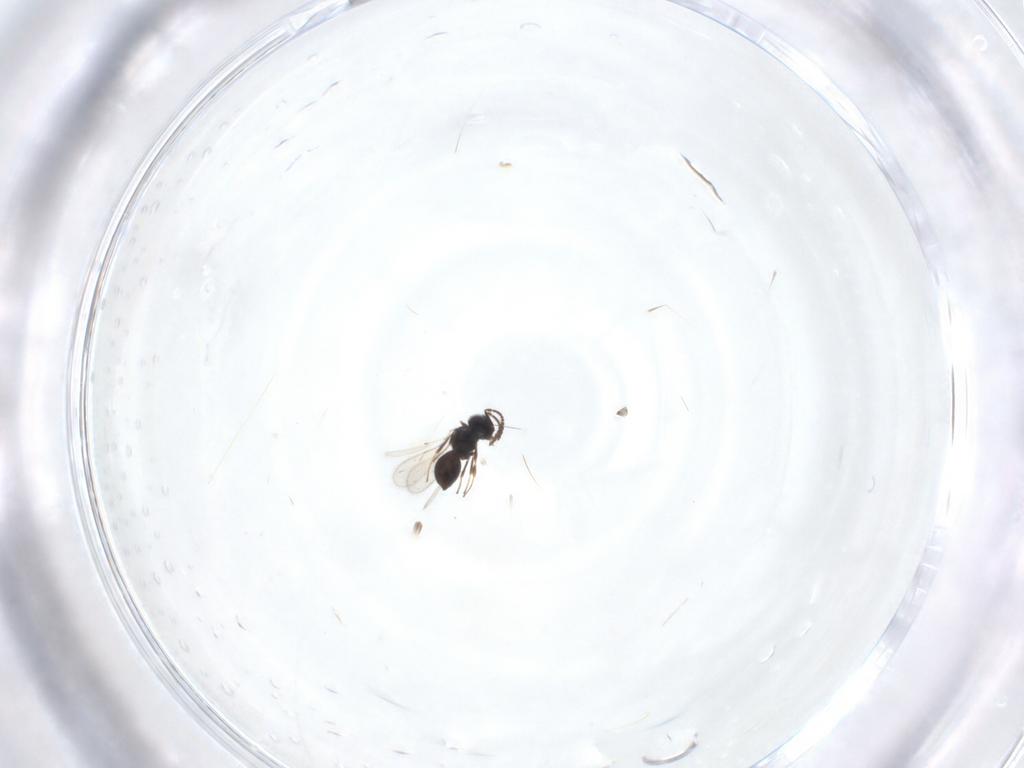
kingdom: Animalia
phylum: Arthropoda
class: Insecta
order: Hymenoptera
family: Scelionidae
